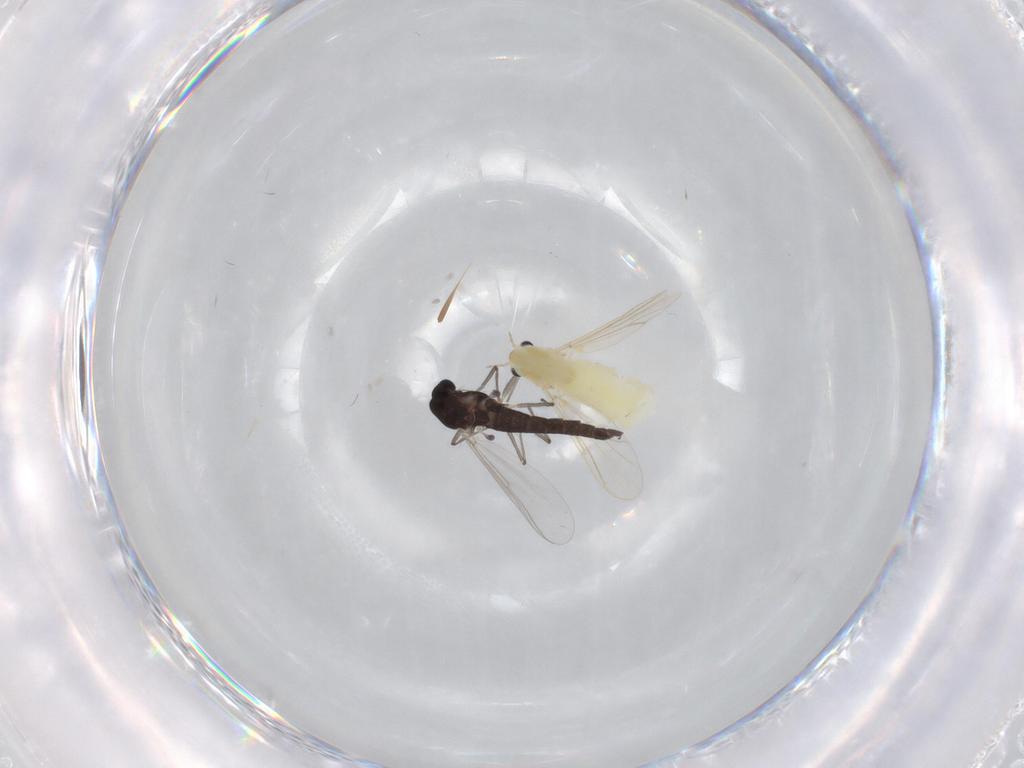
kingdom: Animalia
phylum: Arthropoda
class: Insecta
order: Diptera
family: Chironomidae
